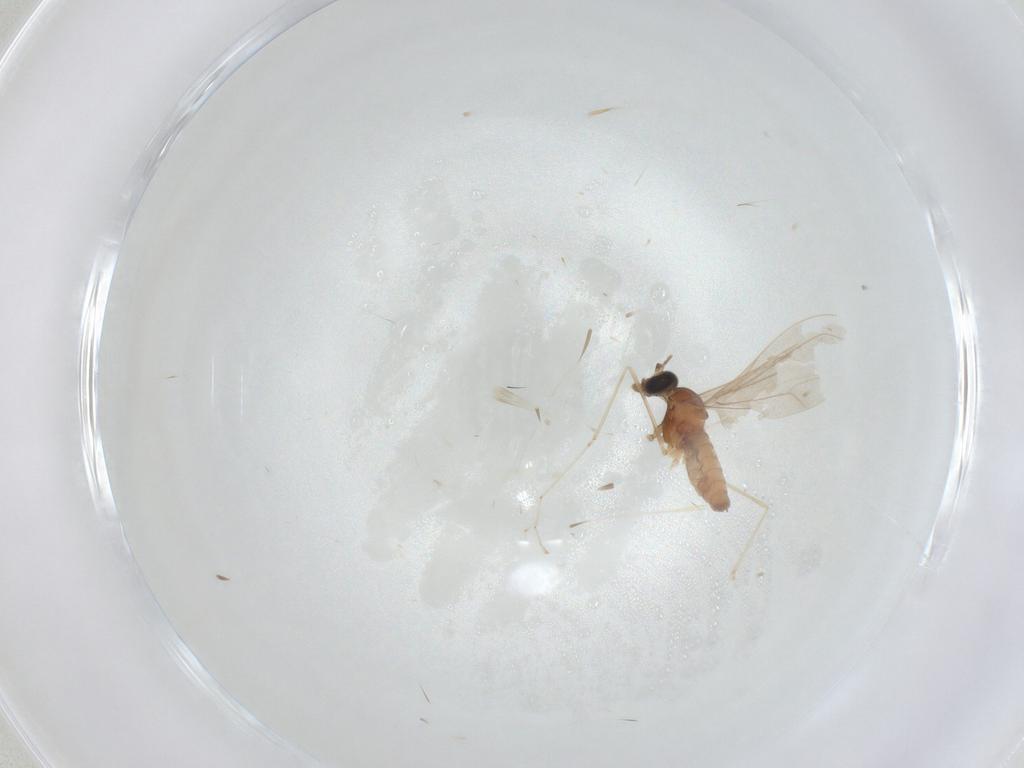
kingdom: Animalia
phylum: Arthropoda
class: Insecta
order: Diptera
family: Cecidomyiidae
